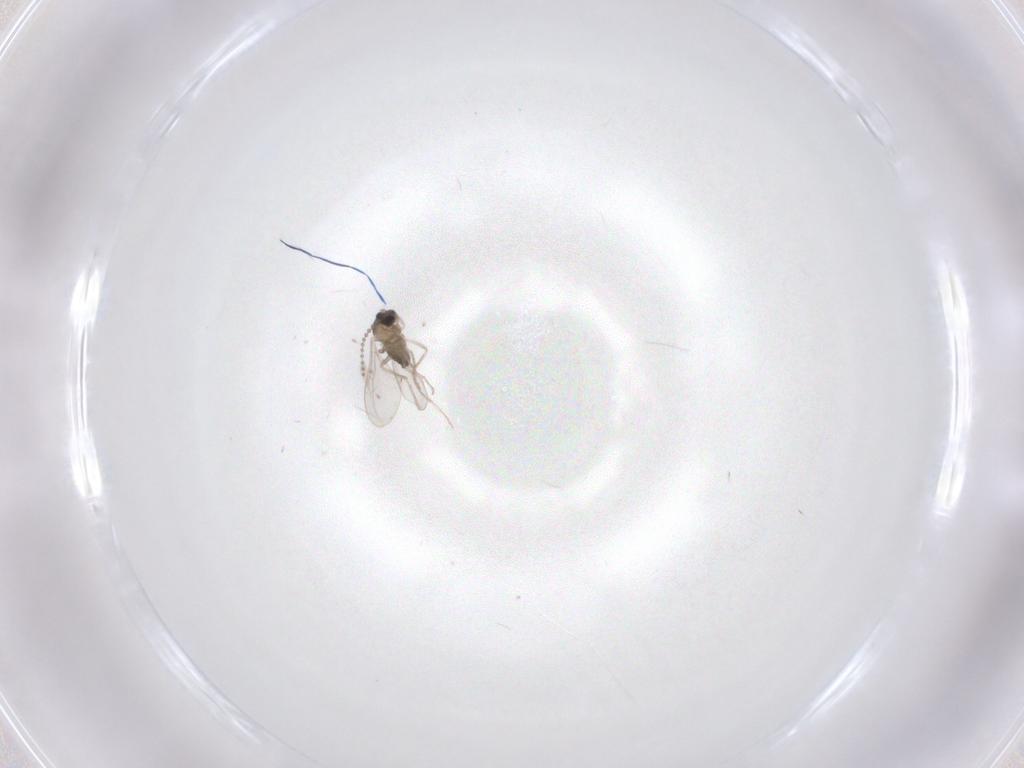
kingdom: Animalia
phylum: Arthropoda
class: Insecta
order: Diptera
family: Cecidomyiidae
